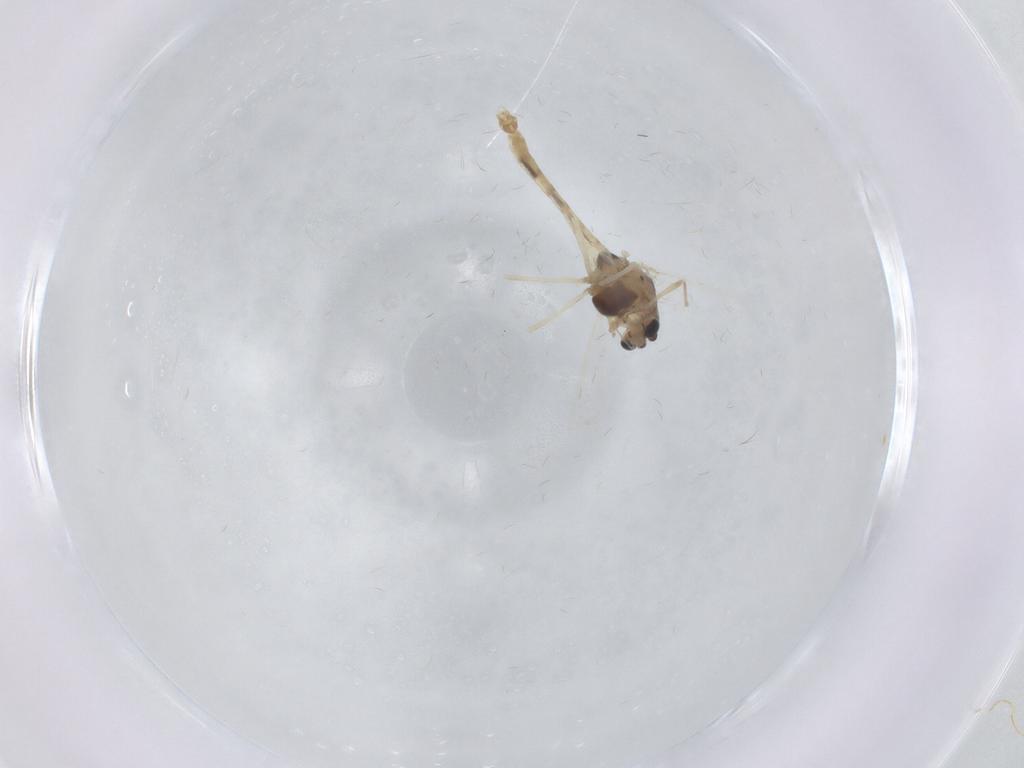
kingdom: Animalia
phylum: Arthropoda
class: Insecta
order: Diptera
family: Chironomidae
